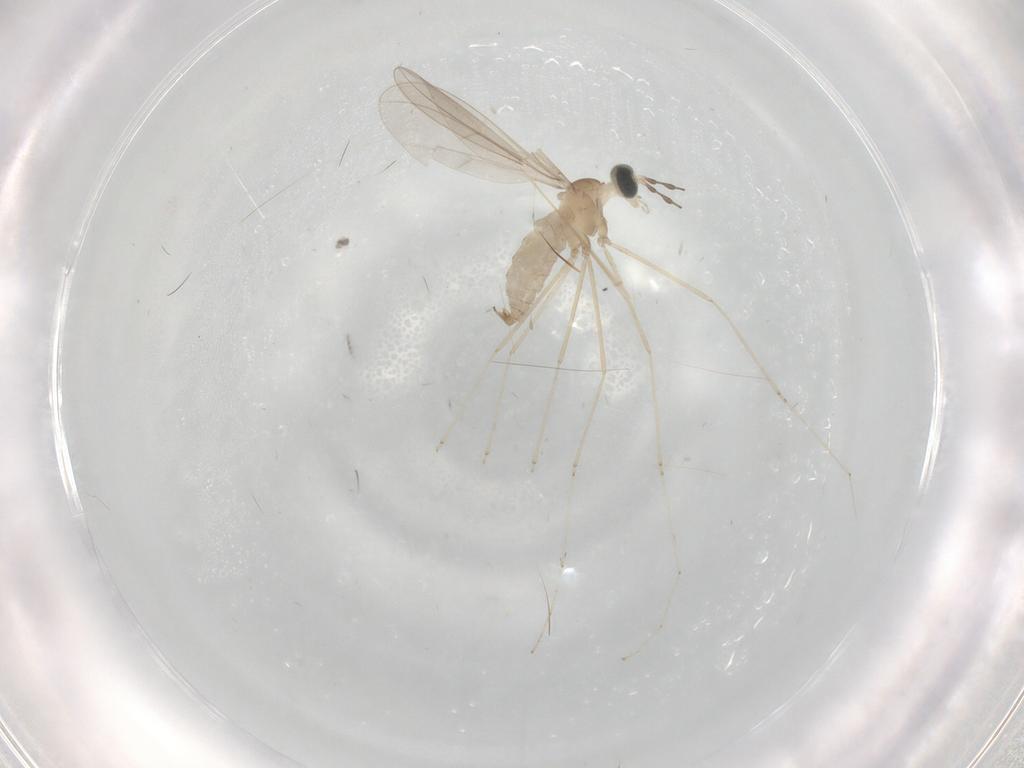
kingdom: Animalia
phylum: Arthropoda
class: Insecta
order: Diptera
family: Cecidomyiidae
